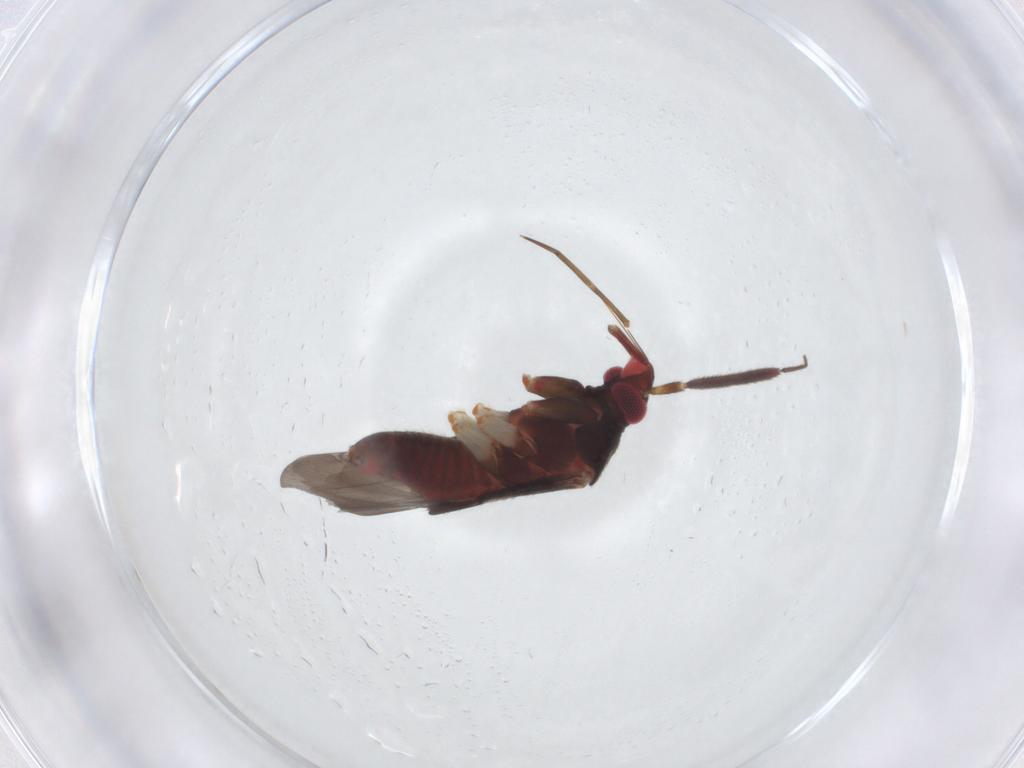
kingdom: Animalia
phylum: Arthropoda
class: Insecta
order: Hemiptera
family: Miridae
